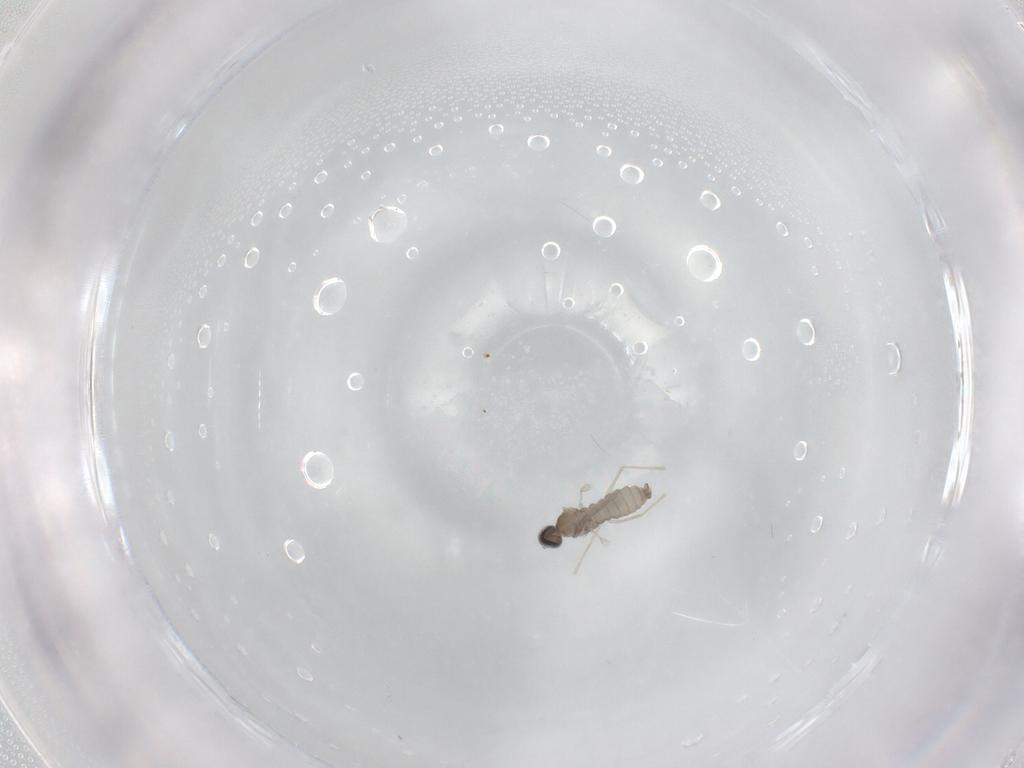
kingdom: Animalia
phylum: Arthropoda
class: Insecta
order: Diptera
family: Cecidomyiidae
